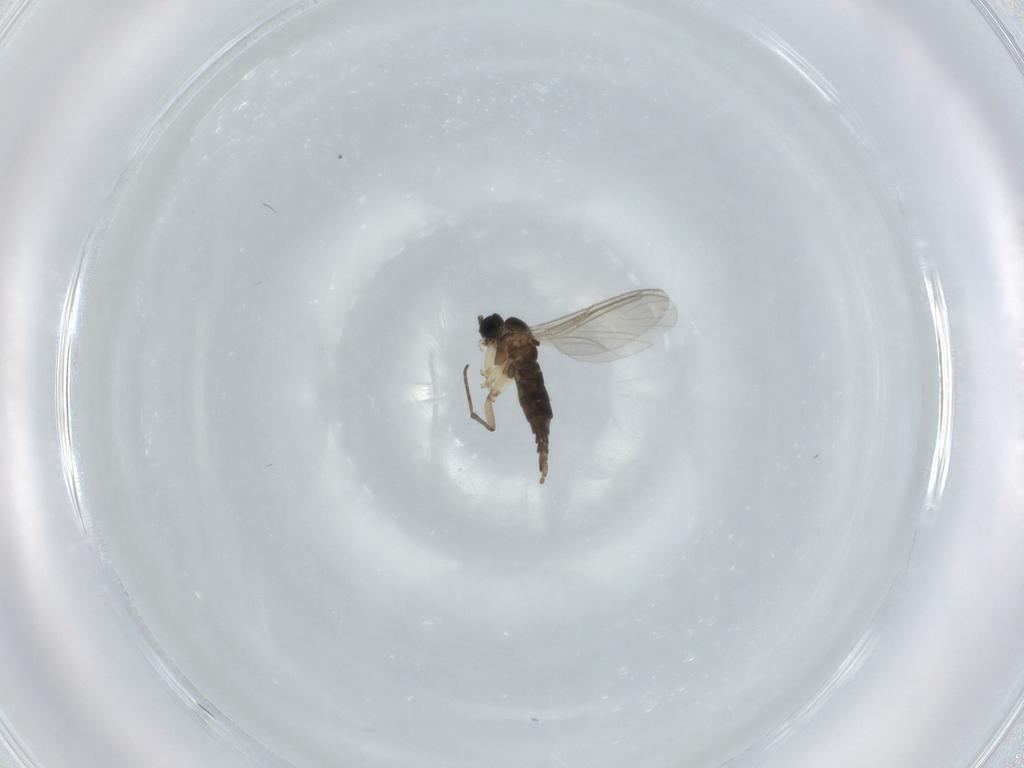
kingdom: Animalia
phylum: Arthropoda
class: Insecta
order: Diptera
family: Sciaridae
